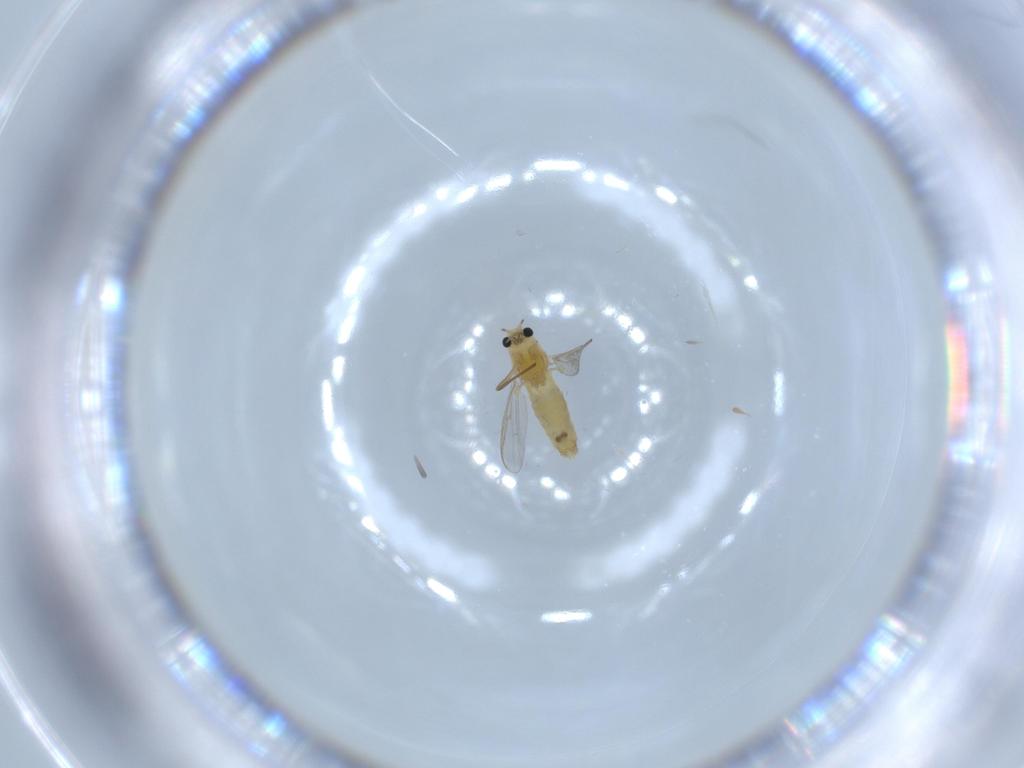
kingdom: Animalia
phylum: Arthropoda
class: Insecta
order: Diptera
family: Chironomidae
